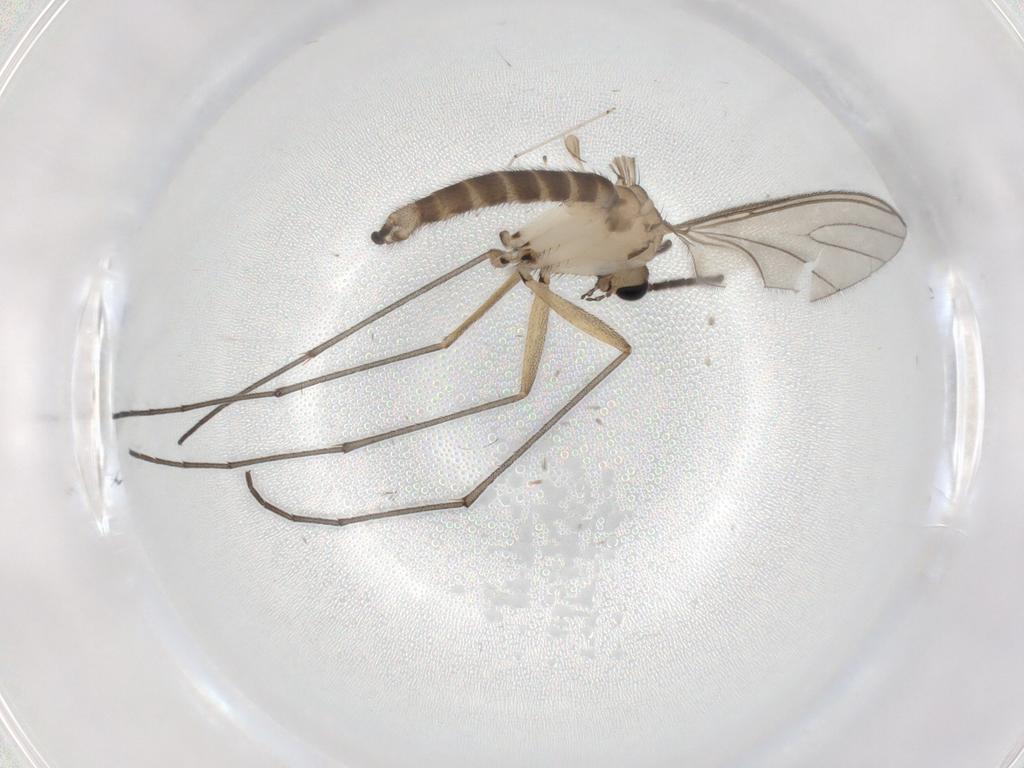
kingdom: Animalia
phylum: Arthropoda
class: Insecta
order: Diptera
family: Sciaridae
